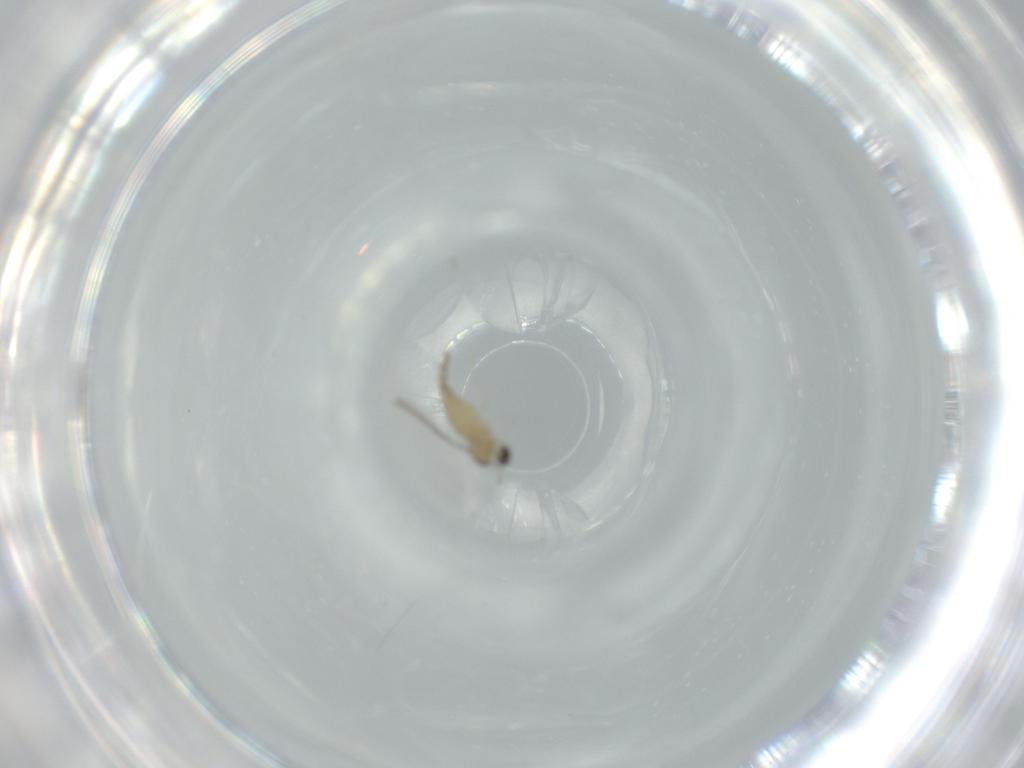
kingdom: Animalia
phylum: Arthropoda
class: Insecta
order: Diptera
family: Cecidomyiidae
